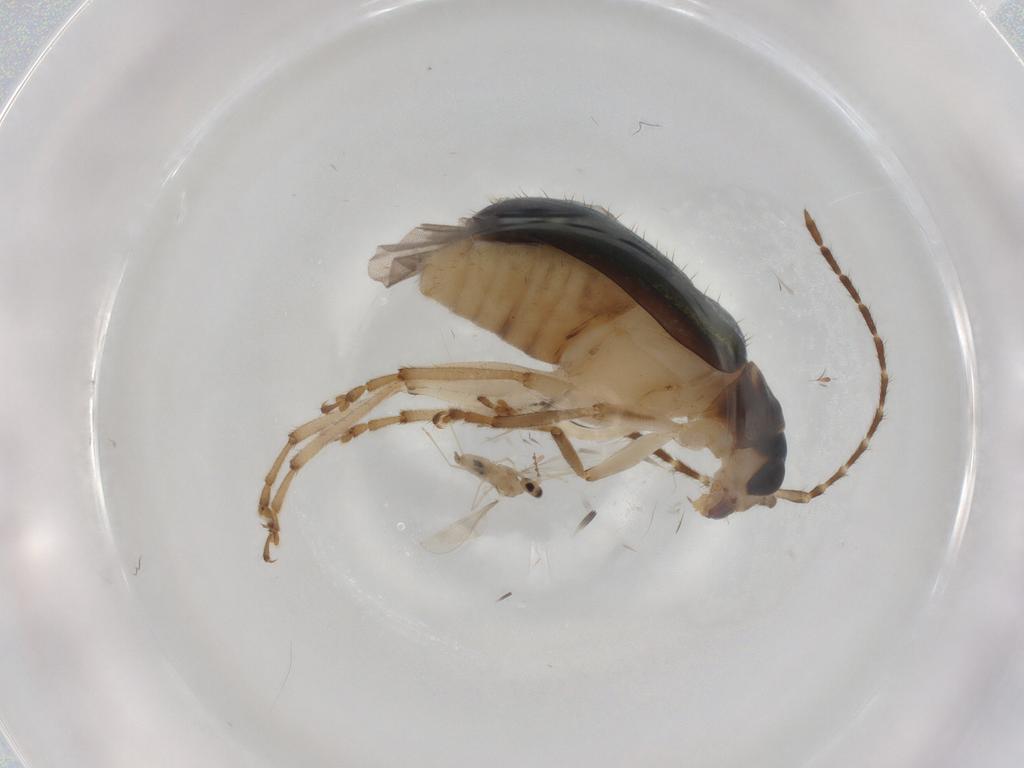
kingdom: Animalia
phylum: Arthropoda
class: Insecta
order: Coleoptera
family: Chrysomelidae
